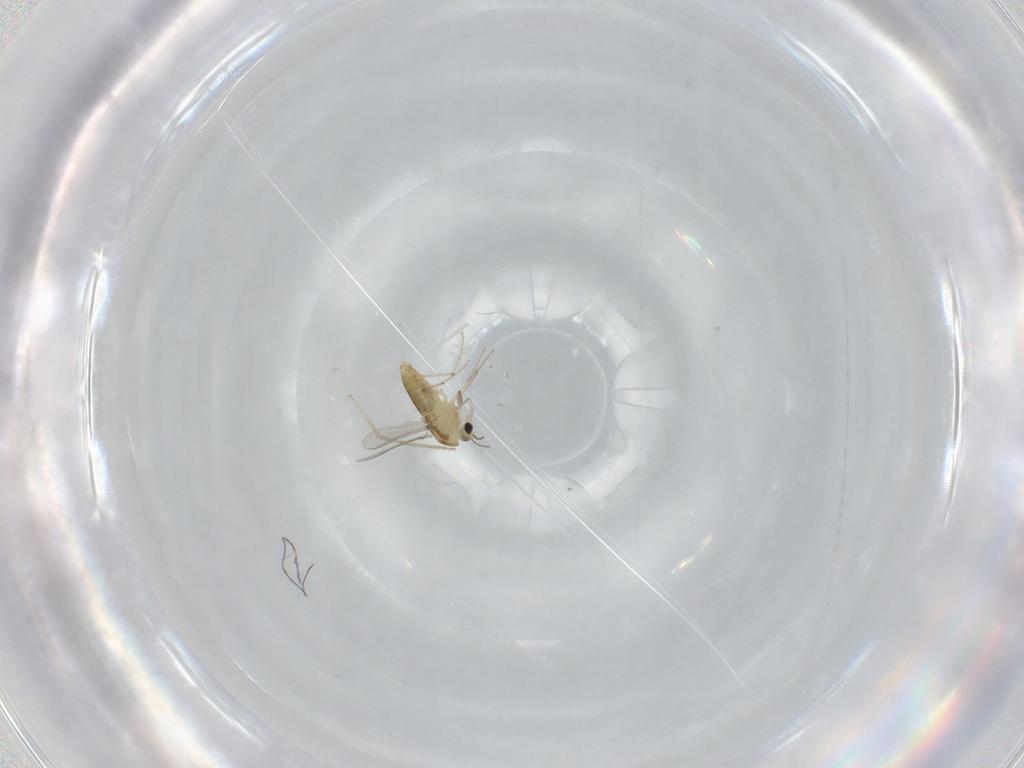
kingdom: Animalia
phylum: Arthropoda
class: Insecta
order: Diptera
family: Chironomidae
